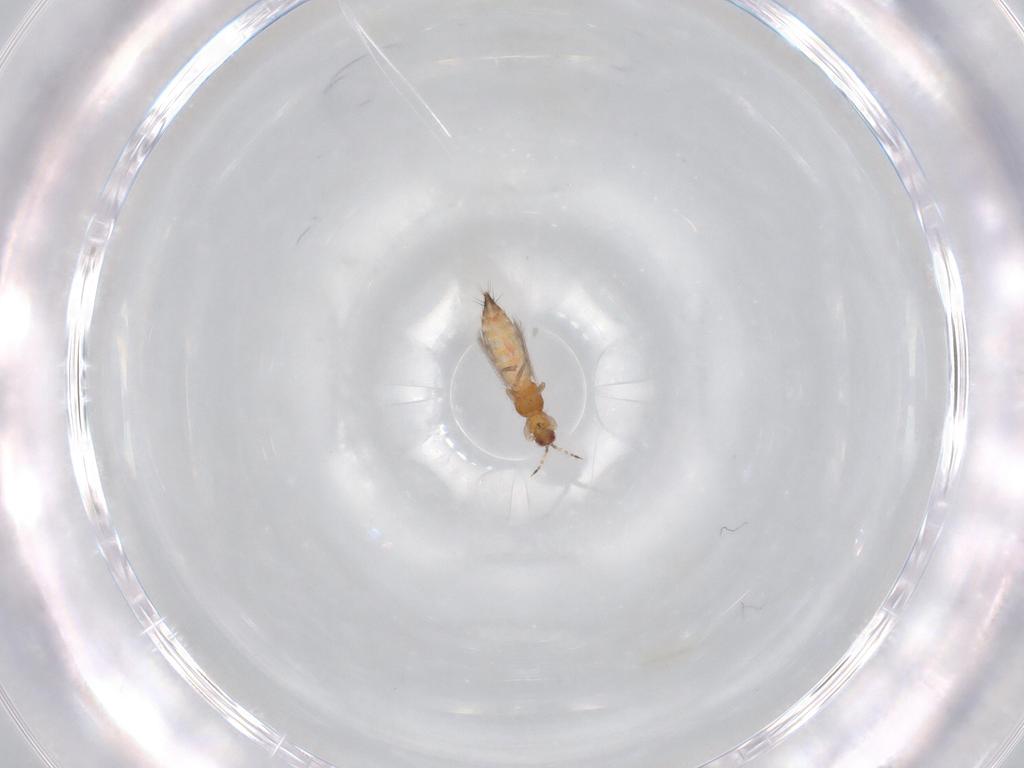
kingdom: Animalia
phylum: Arthropoda
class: Insecta
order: Thysanoptera
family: Thripidae
